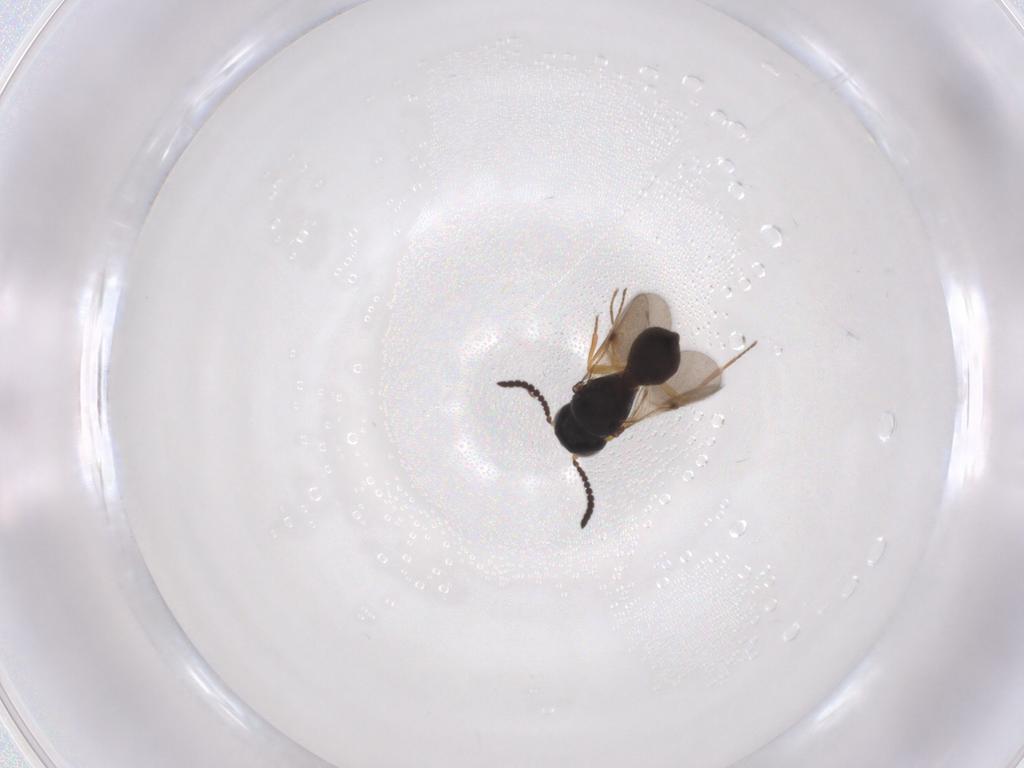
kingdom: Animalia
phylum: Arthropoda
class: Insecta
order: Hymenoptera
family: Scelionidae
